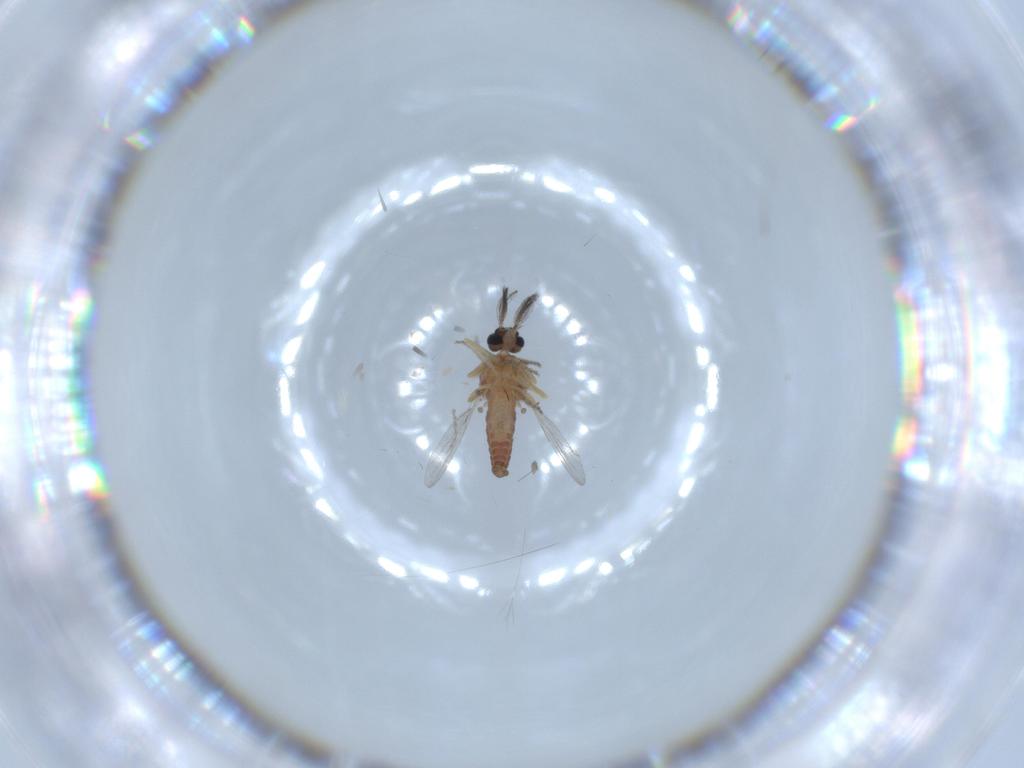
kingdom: Animalia
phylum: Arthropoda
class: Insecta
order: Diptera
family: Ceratopogonidae
